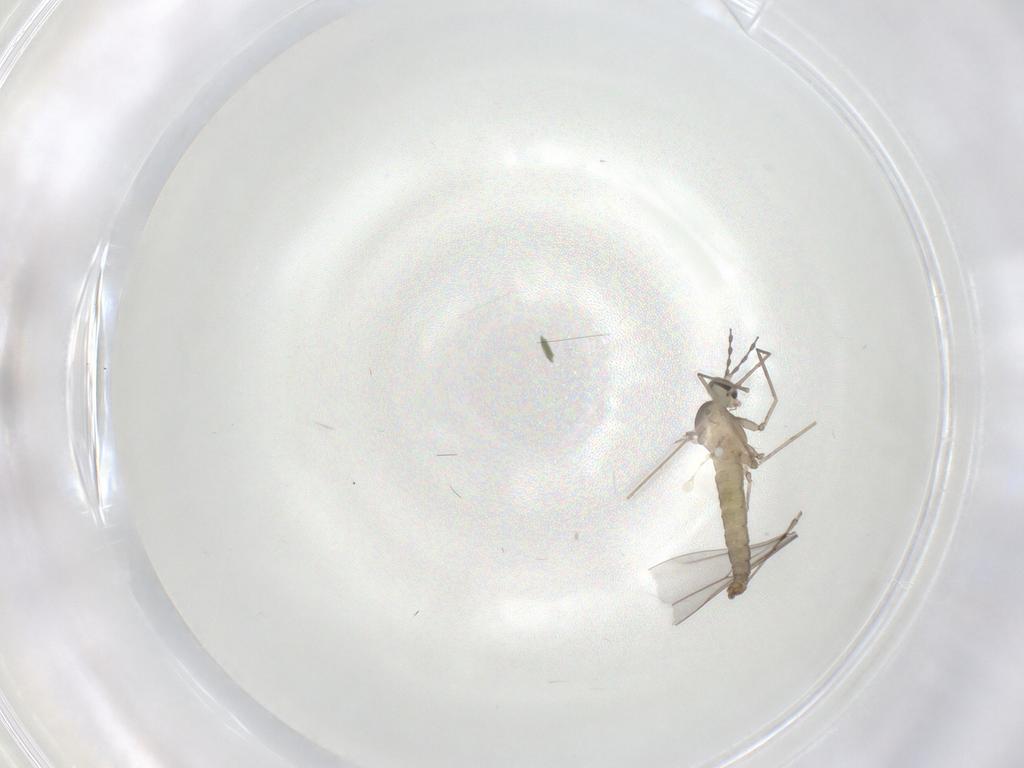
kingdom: Animalia
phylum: Arthropoda
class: Insecta
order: Diptera
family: Cecidomyiidae
